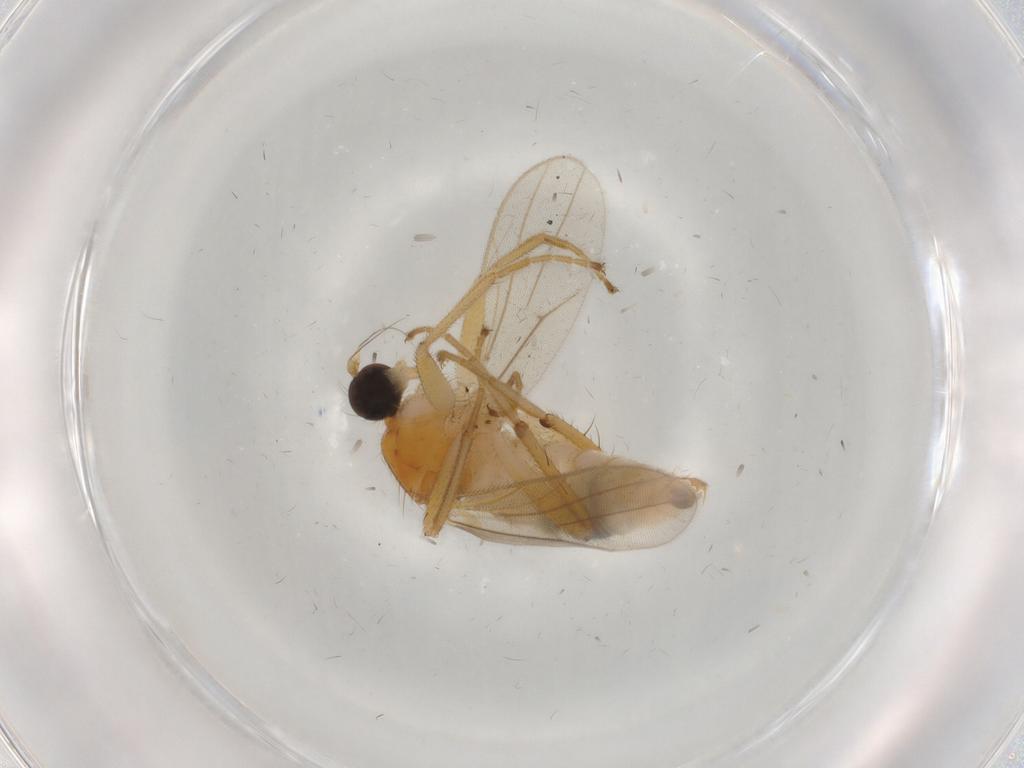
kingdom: Animalia
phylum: Arthropoda
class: Insecta
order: Diptera
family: Hybotidae
